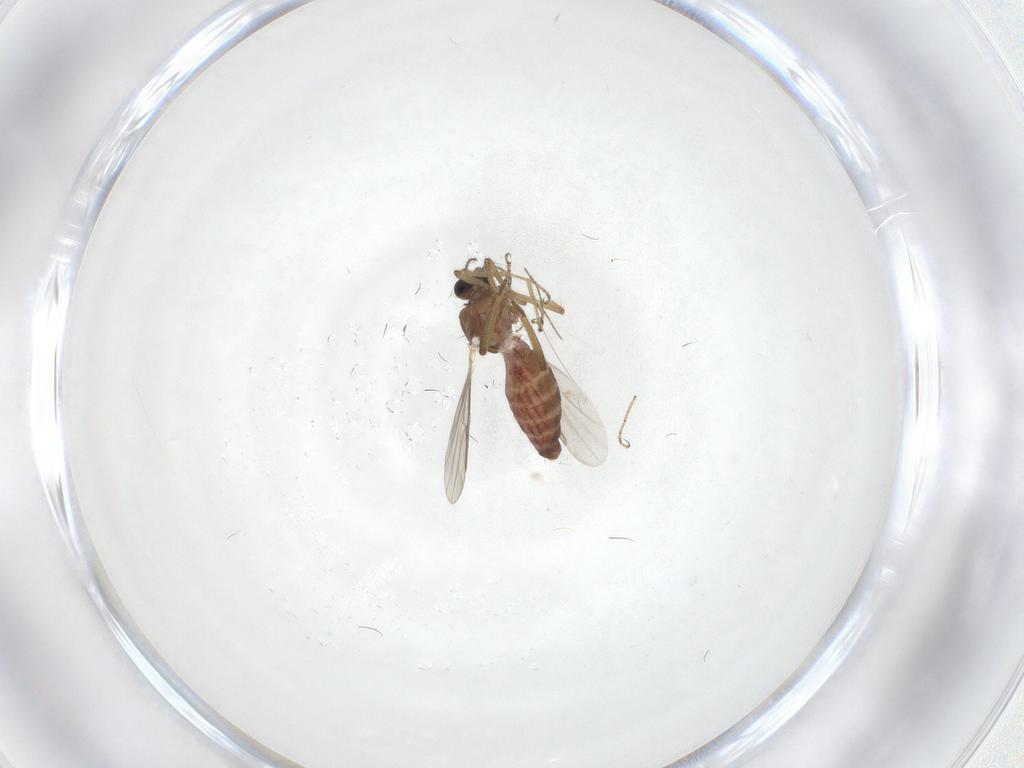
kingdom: Animalia
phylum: Arthropoda
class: Insecta
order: Diptera
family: Ceratopogonidae
